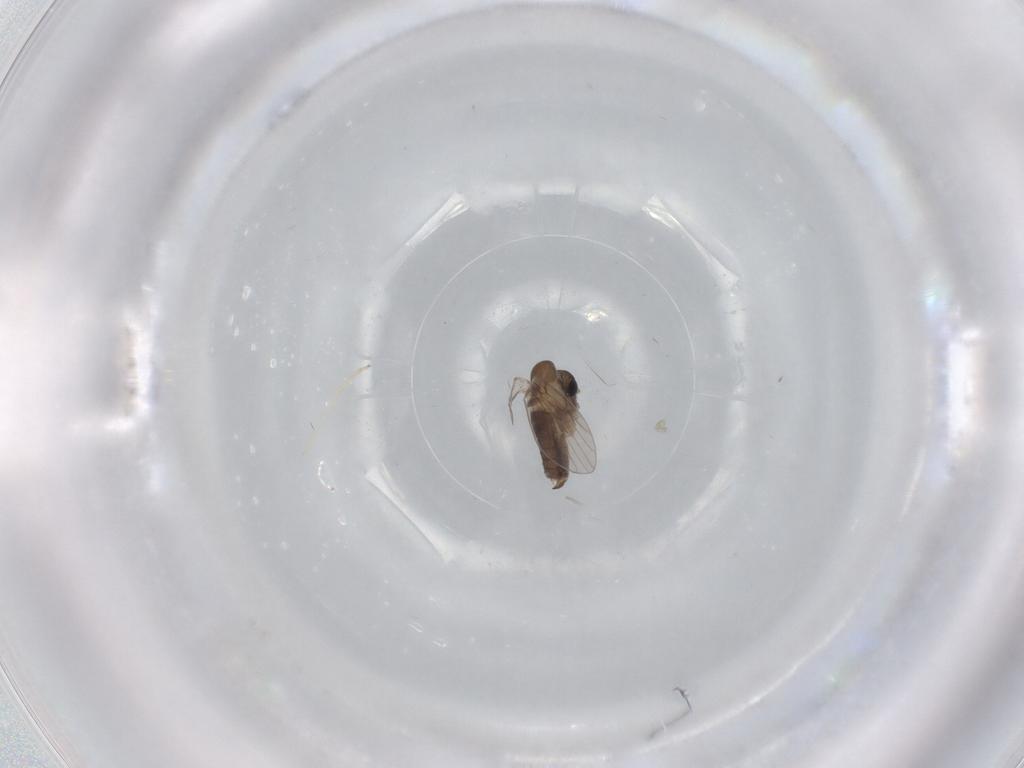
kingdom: Animalia
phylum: Arthropoda
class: Insecta
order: Diptera
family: Chironomidae
